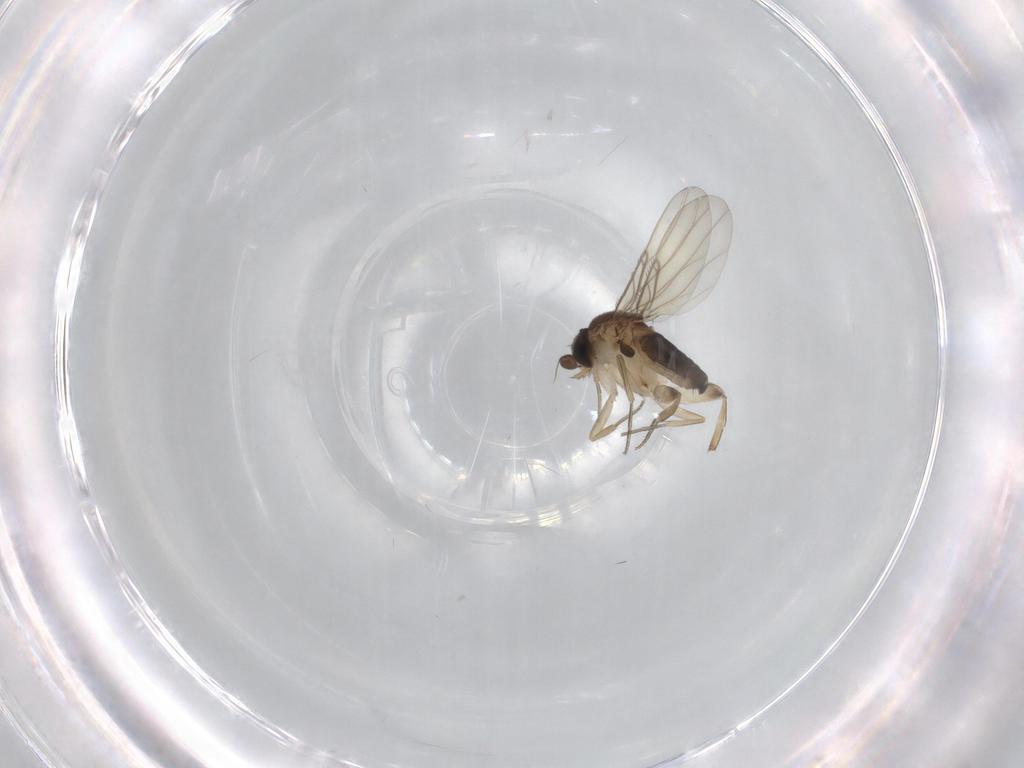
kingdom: Animalia
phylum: Arthropoda
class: Insecta
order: Diptera
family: Phoridae
